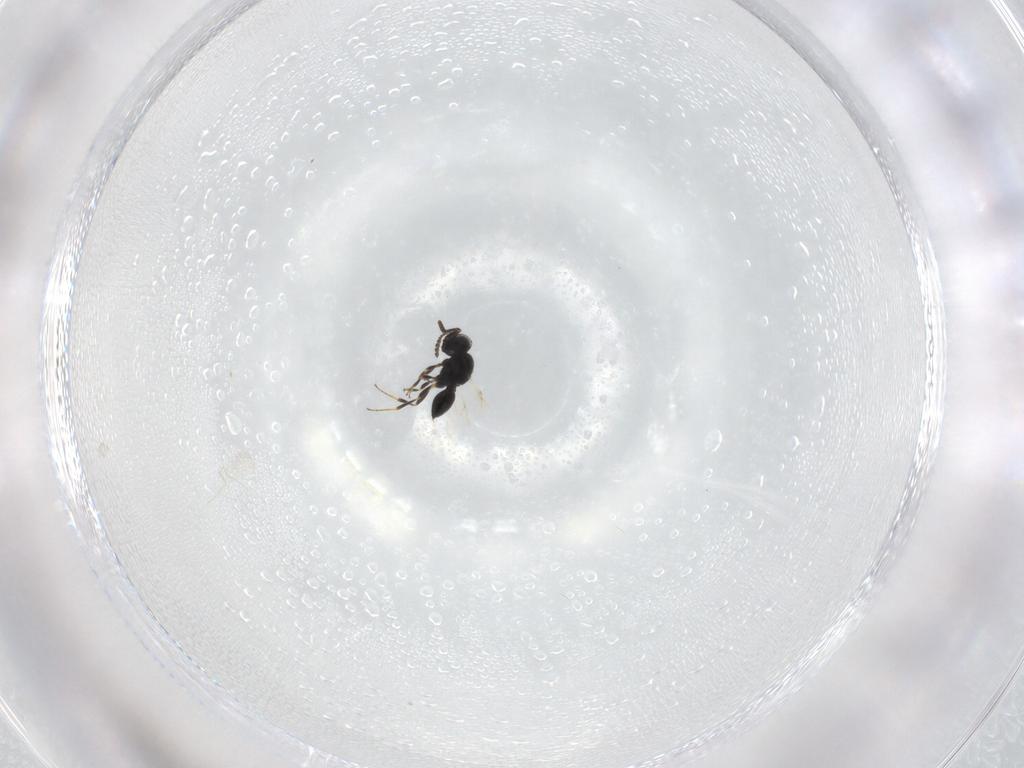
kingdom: Animalia
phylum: Arthropoda
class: Insecta
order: Hymenoptera
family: Scelionidae
